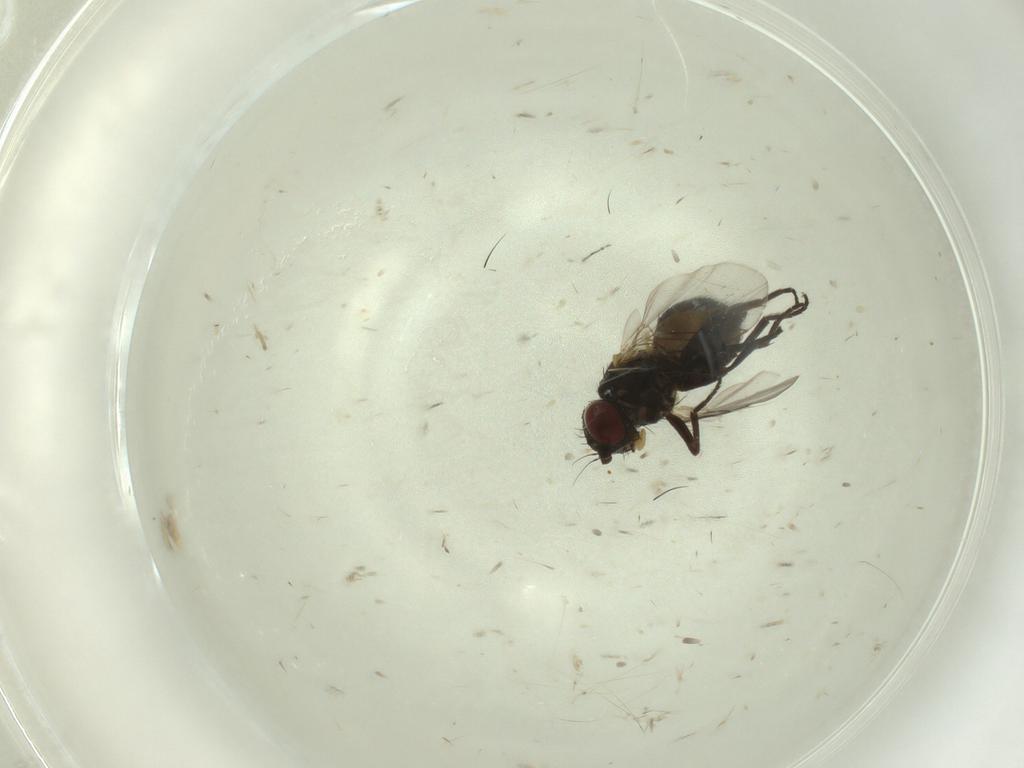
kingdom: Animalia
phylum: Arthropoda
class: Insecta
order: Diptera
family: Dolichopodidae
